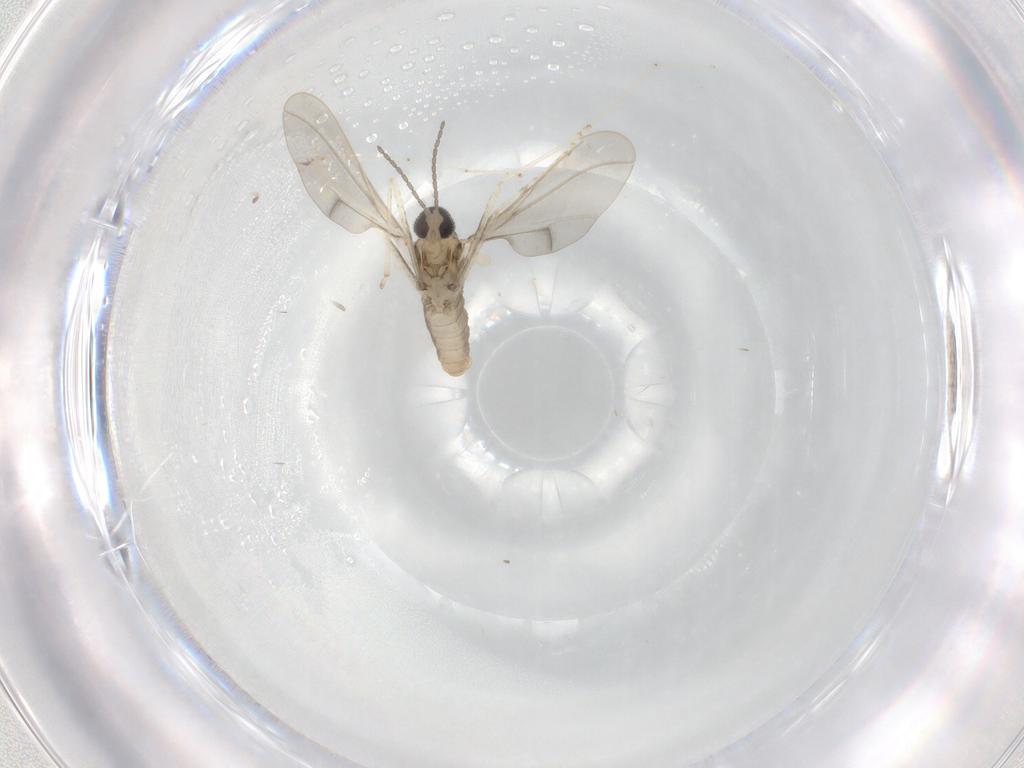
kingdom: Animalia
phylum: Arthropoda
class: Insecta
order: Diptera
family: Cecidomyiidae
